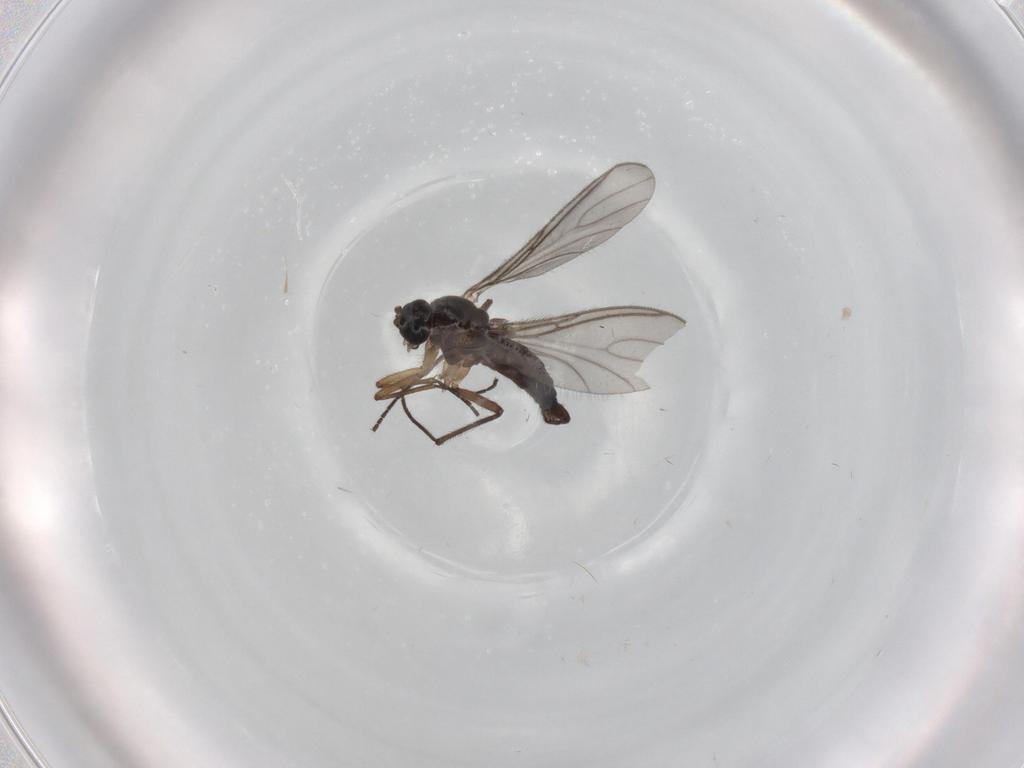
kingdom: Animalia
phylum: Arthropoda
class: Insecta
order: Diptera
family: Sciaridae
